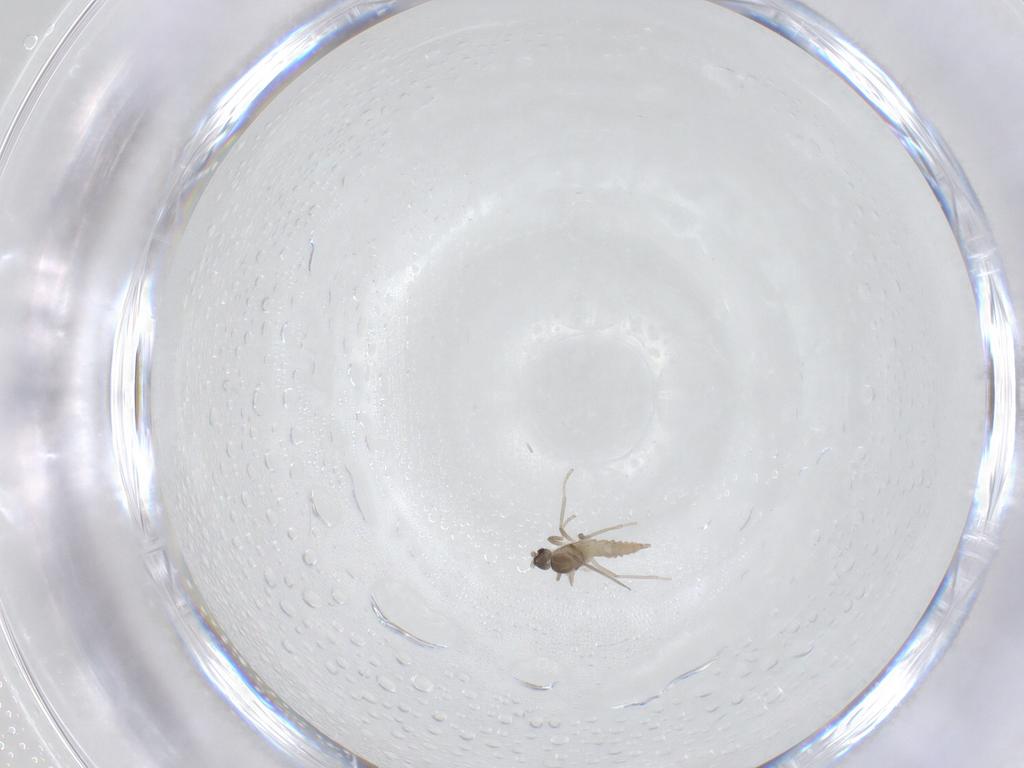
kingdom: Animalia
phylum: Arthropoda
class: Insecta
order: Diptera
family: Cecidomyiidae
